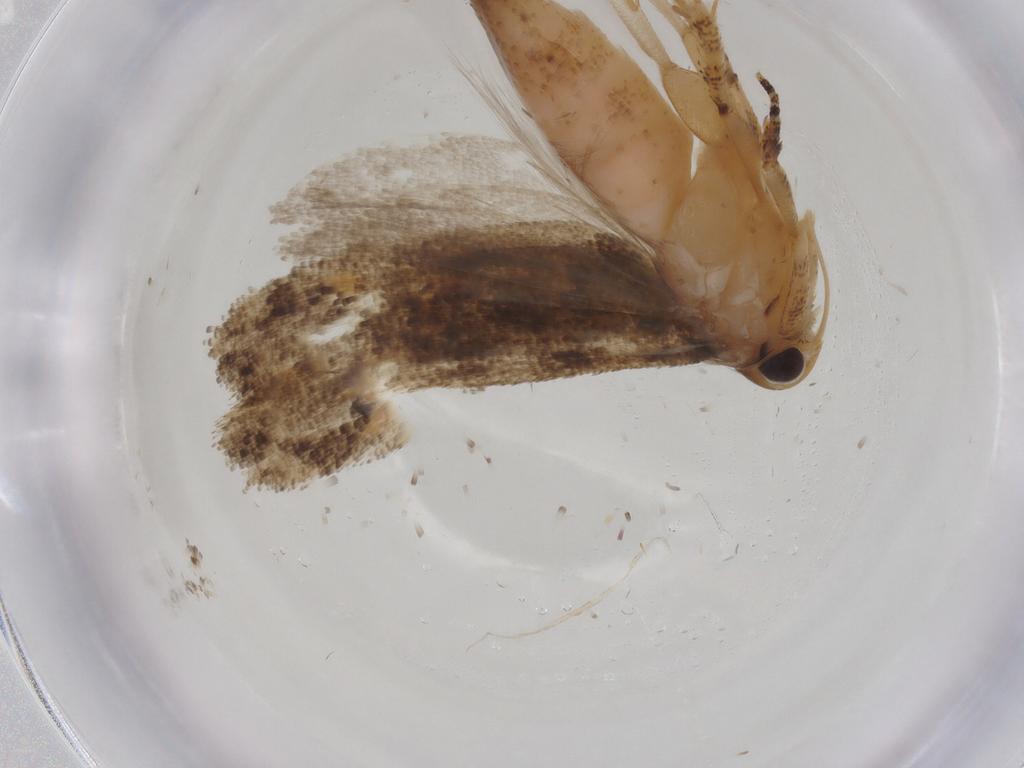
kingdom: Animalia
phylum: Arthropoda
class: Insecta
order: Lepidoptera
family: Gelechiidae
